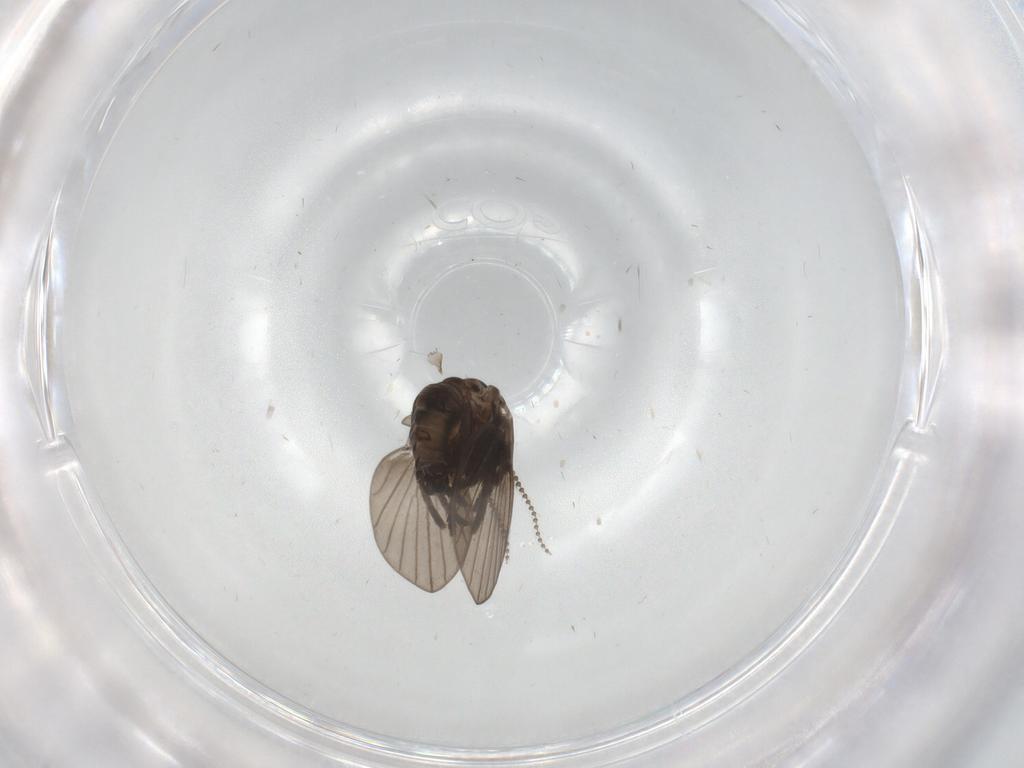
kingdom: Animalia
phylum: Arthropoda
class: Insecta
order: Diptera
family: Psychodidae
